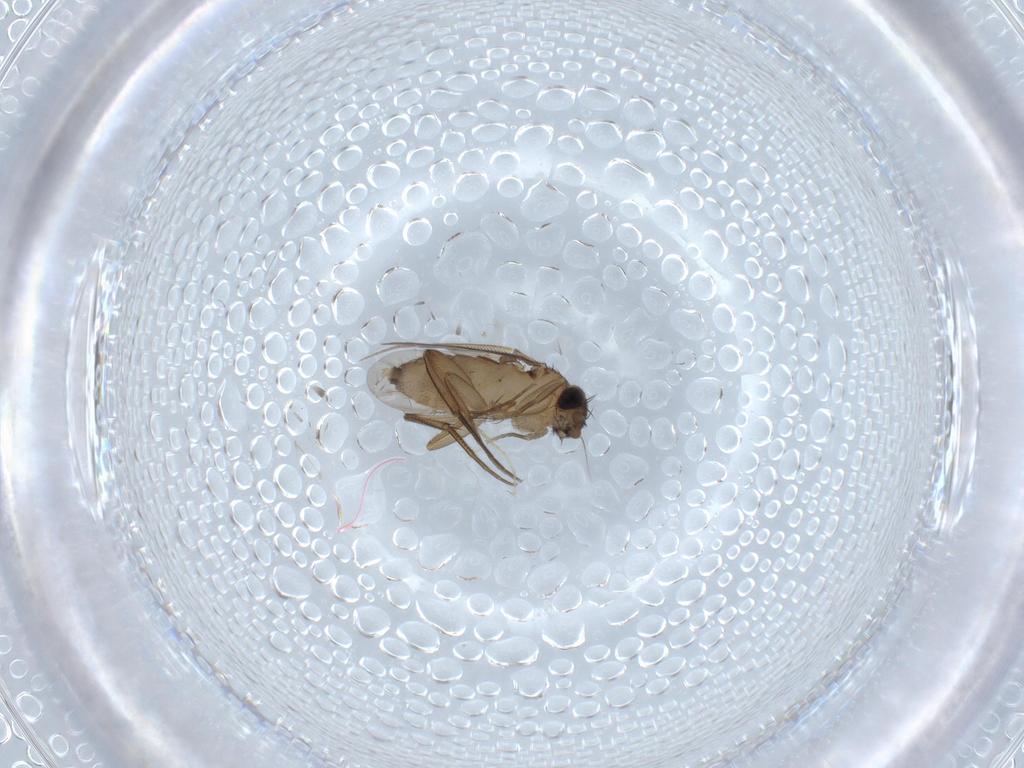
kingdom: Animalia
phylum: Arthropoda
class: Insecta
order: Diptera
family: Phoridae
